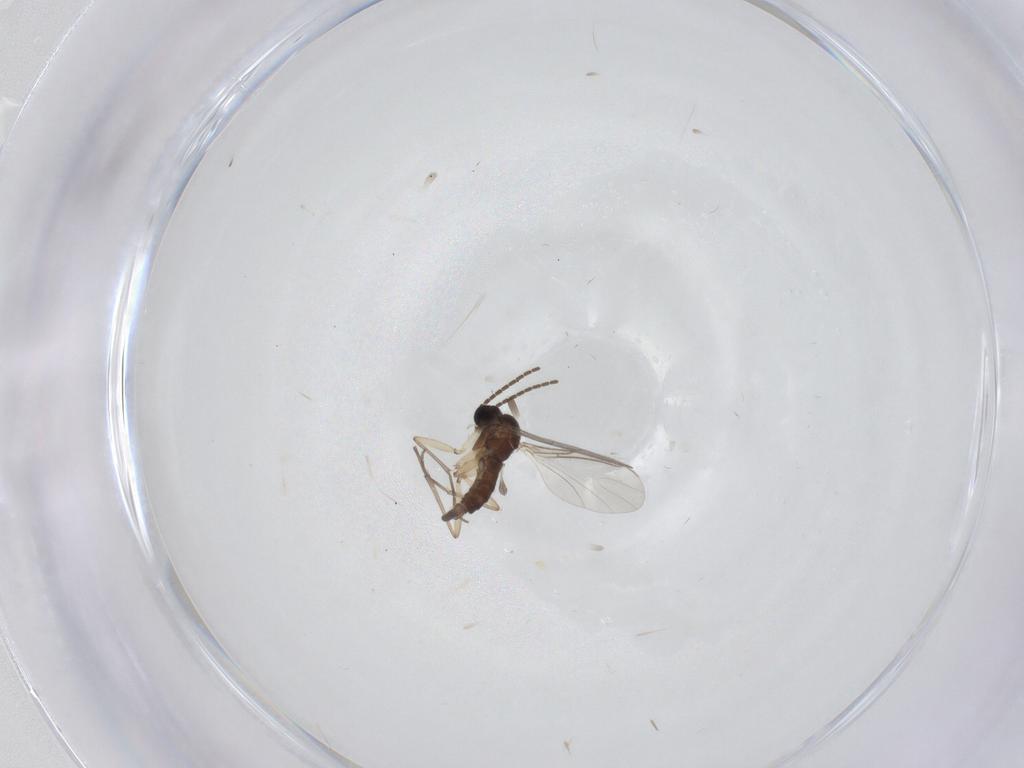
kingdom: Animalia
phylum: Arthropoda
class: Insecta
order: Diptera
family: Sciaridae
